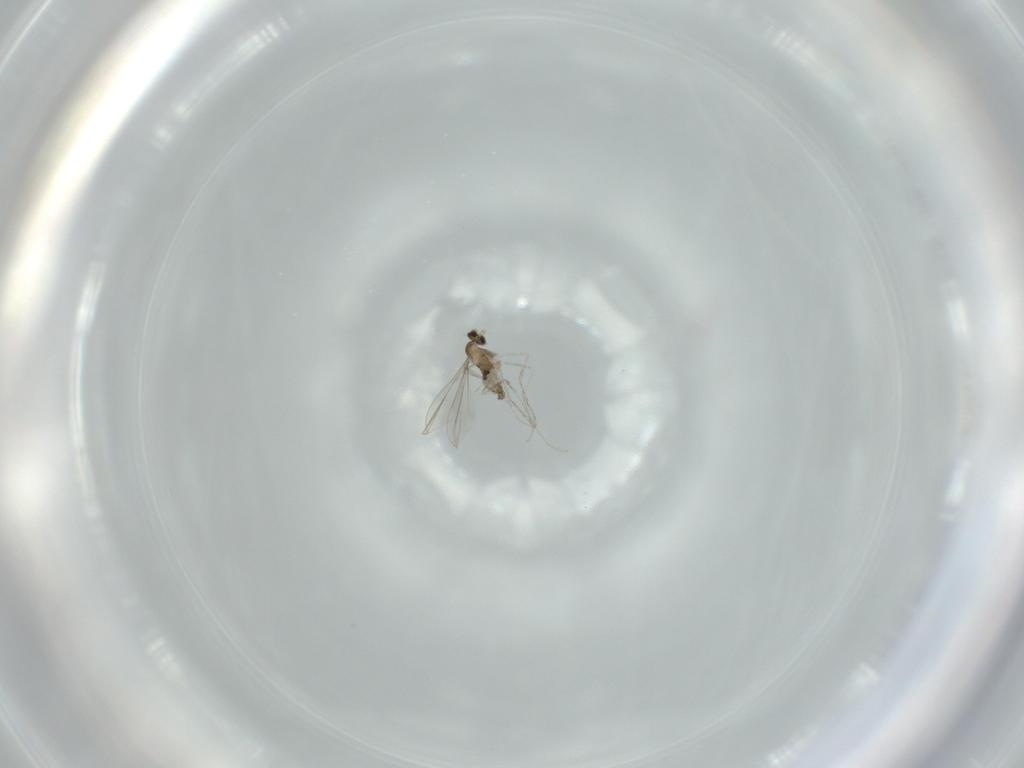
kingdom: Animalia
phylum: Arthropoda
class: Insecta
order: Diptera
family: Cecidomyiidae
